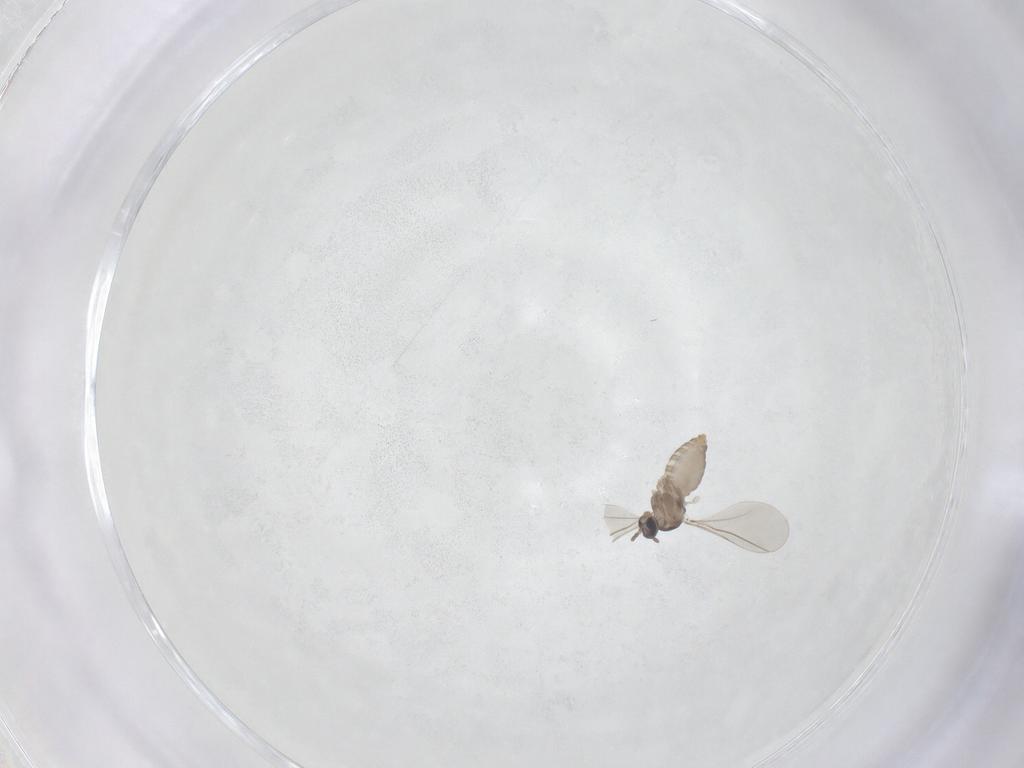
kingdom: Animalia
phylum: Arthropoda
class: Insecta
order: Diptera
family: Cecidomyiidae
